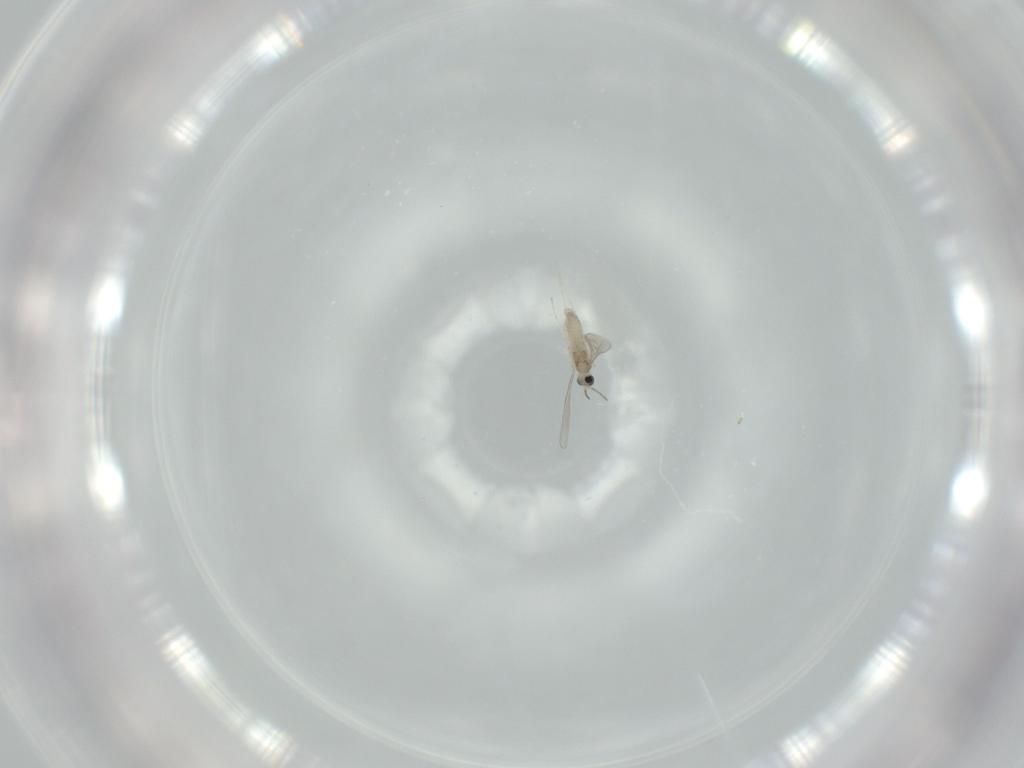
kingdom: Animalia
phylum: Arthropoda
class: Insecta
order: Diptera
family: Cecidomyiidae
